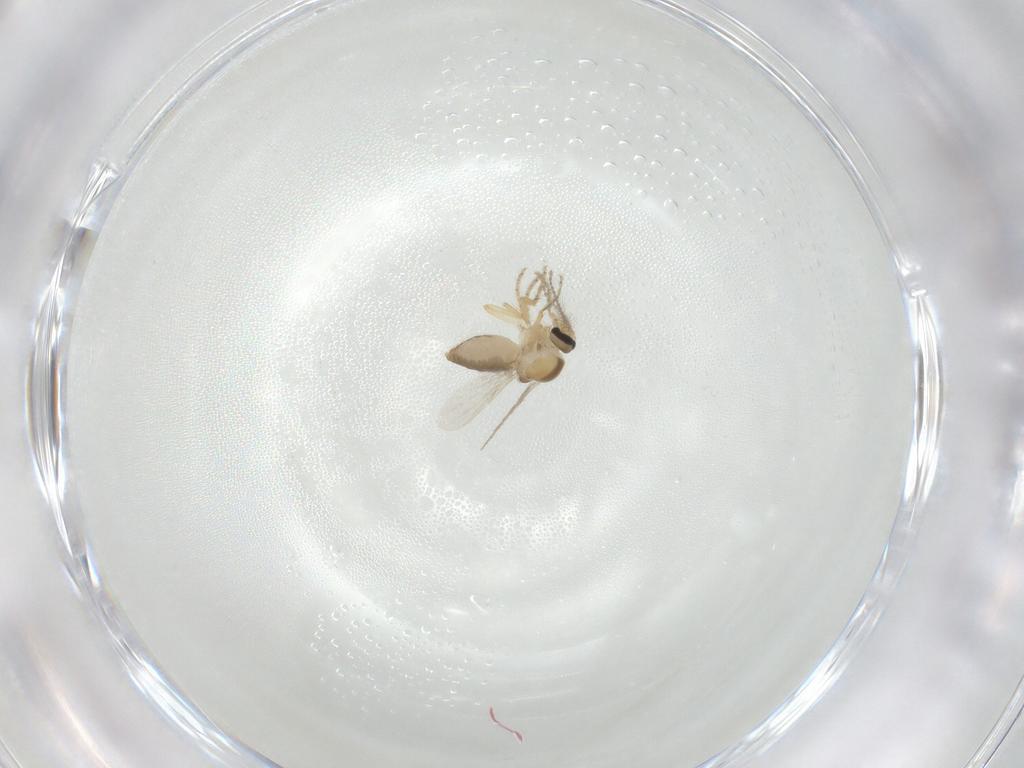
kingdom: Animalia
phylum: Arthropoda
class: Insecta
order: Diptera
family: Ceratopogonidae
